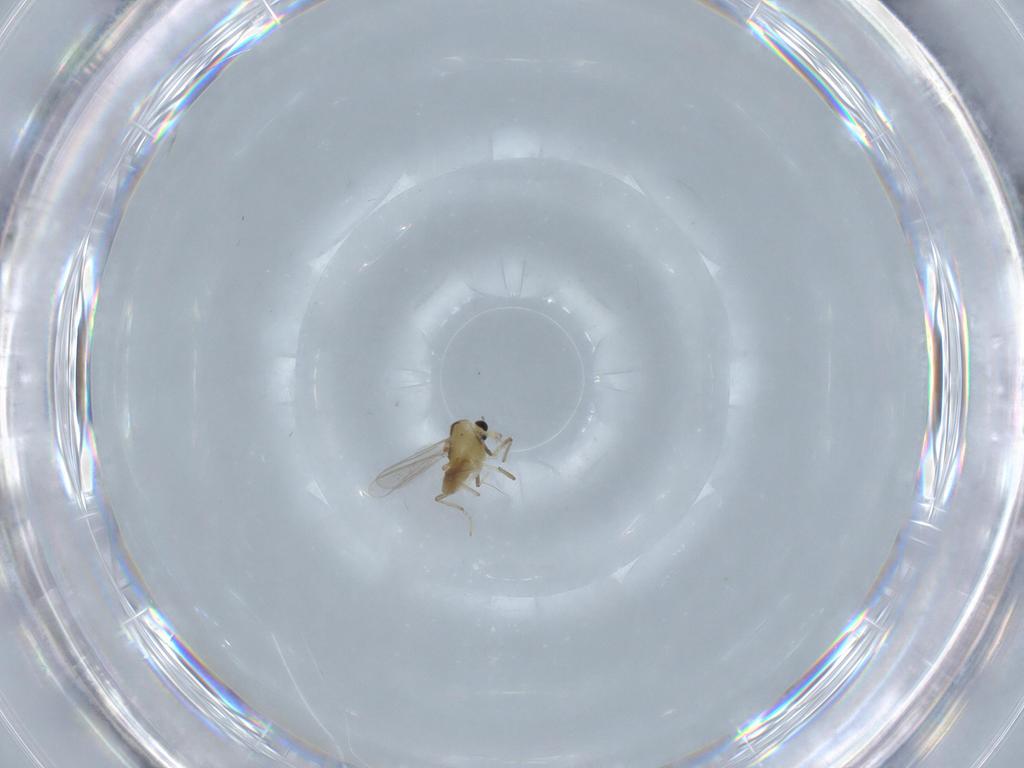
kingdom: Animalia
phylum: Arthropoda
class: Insecta
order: Diptera
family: Chironomidae
